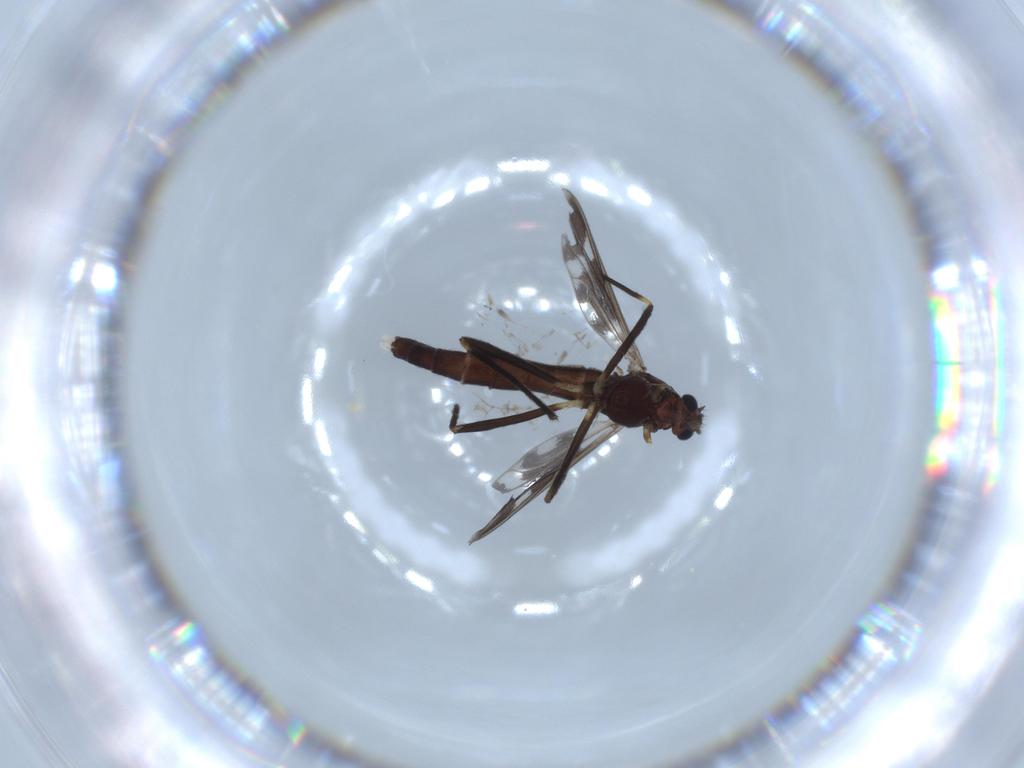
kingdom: Animalia
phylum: Arthropoda
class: Insecta
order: Diptera
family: Chironomidae
